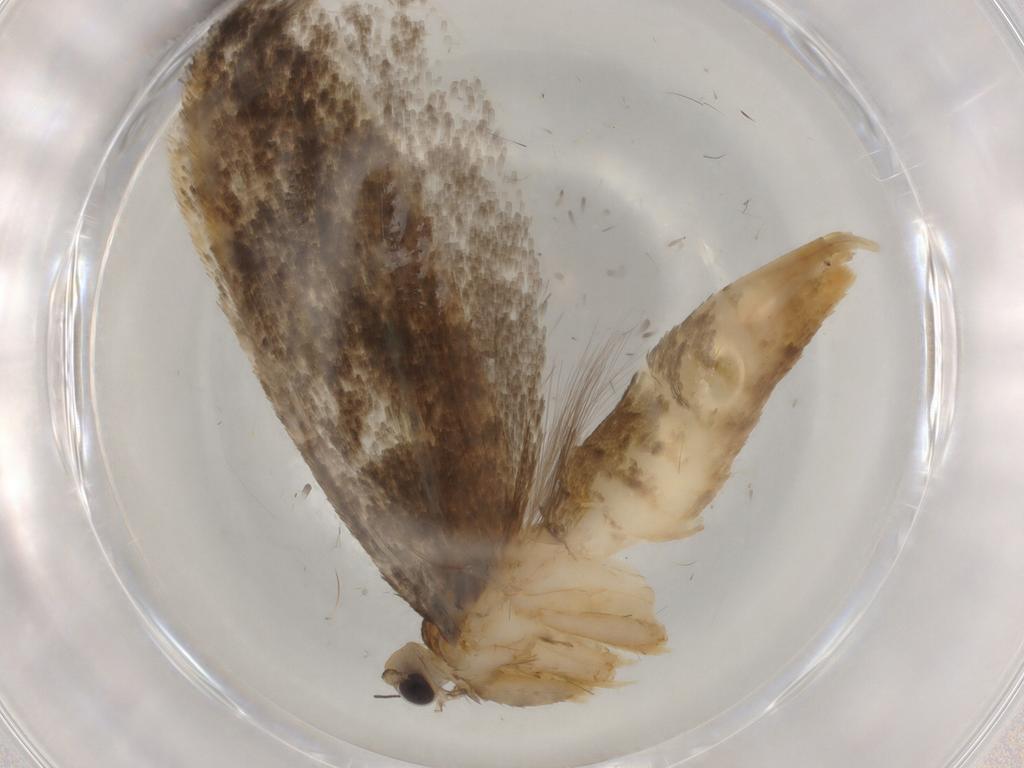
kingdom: Animalia
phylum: Arthropoda
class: Insecta
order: Lepidoptera
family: Tineidae
